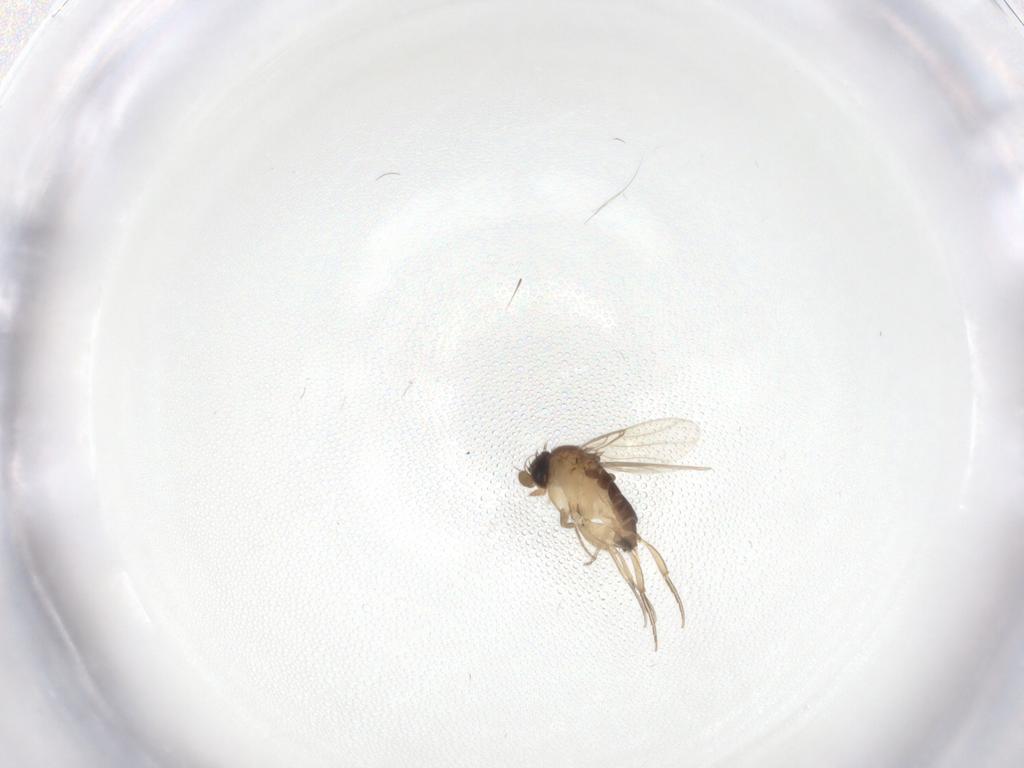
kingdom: Animalia
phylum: Arthropoda
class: Insecta
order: Diptera
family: Phoridae
